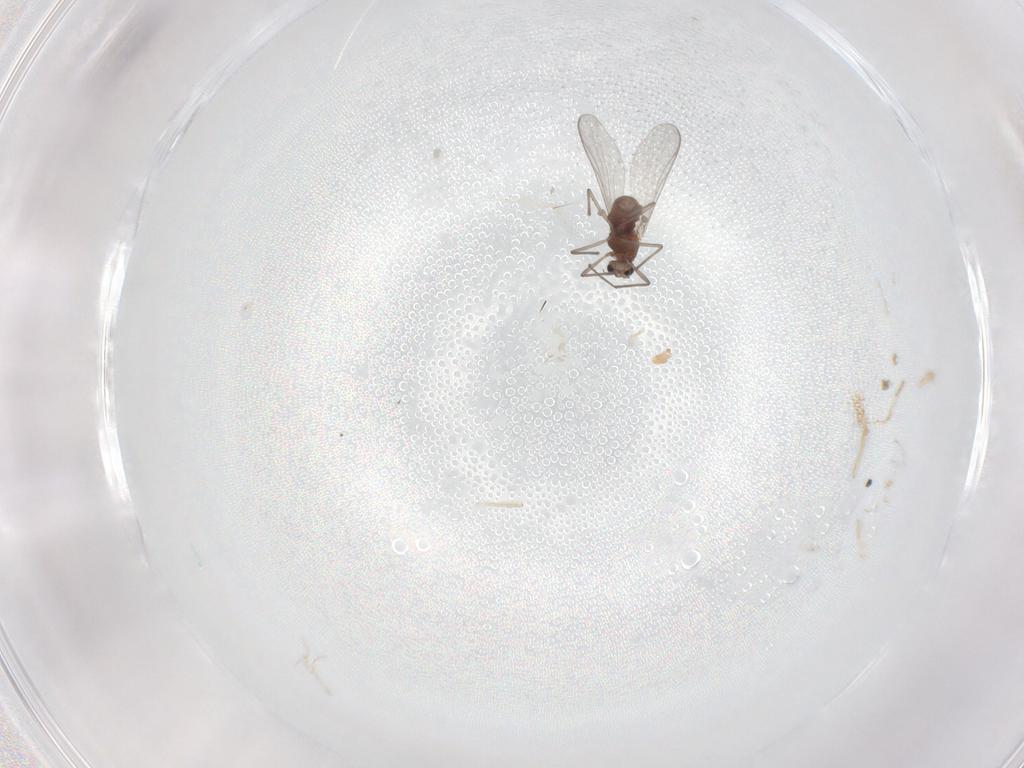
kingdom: Animalia
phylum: Arthropoda
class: Insecta
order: Diptera
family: Chironomidae
